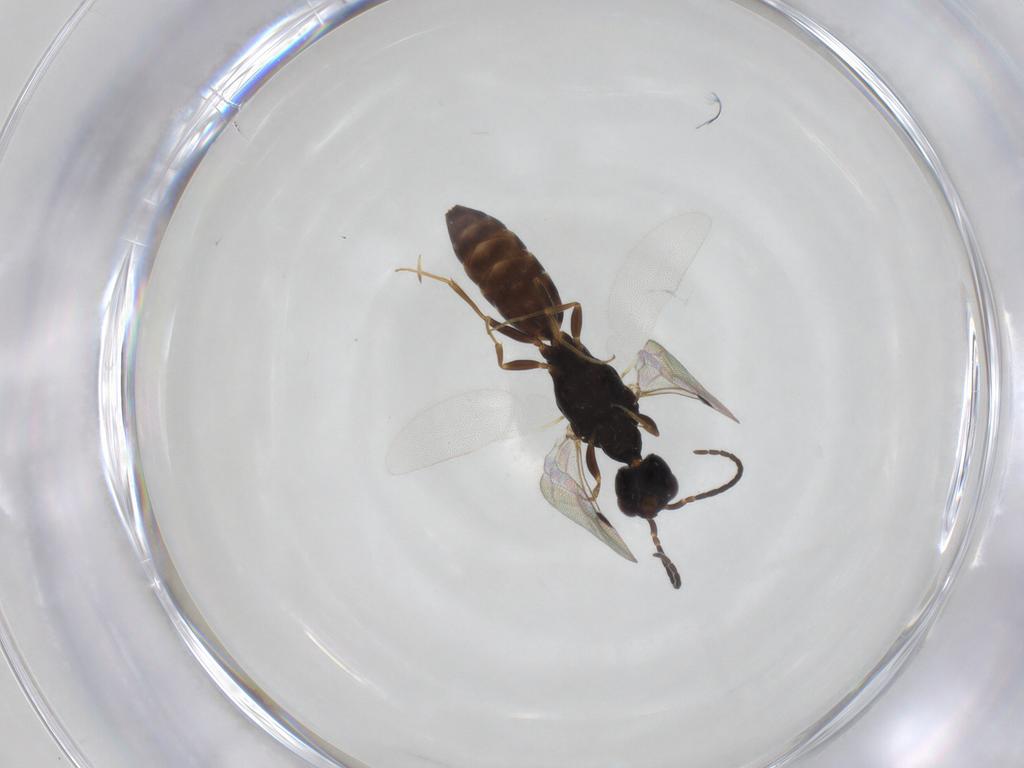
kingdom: Animalia
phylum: Arthropoda
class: Insecta
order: Hymenoptera
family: Bethylidae
